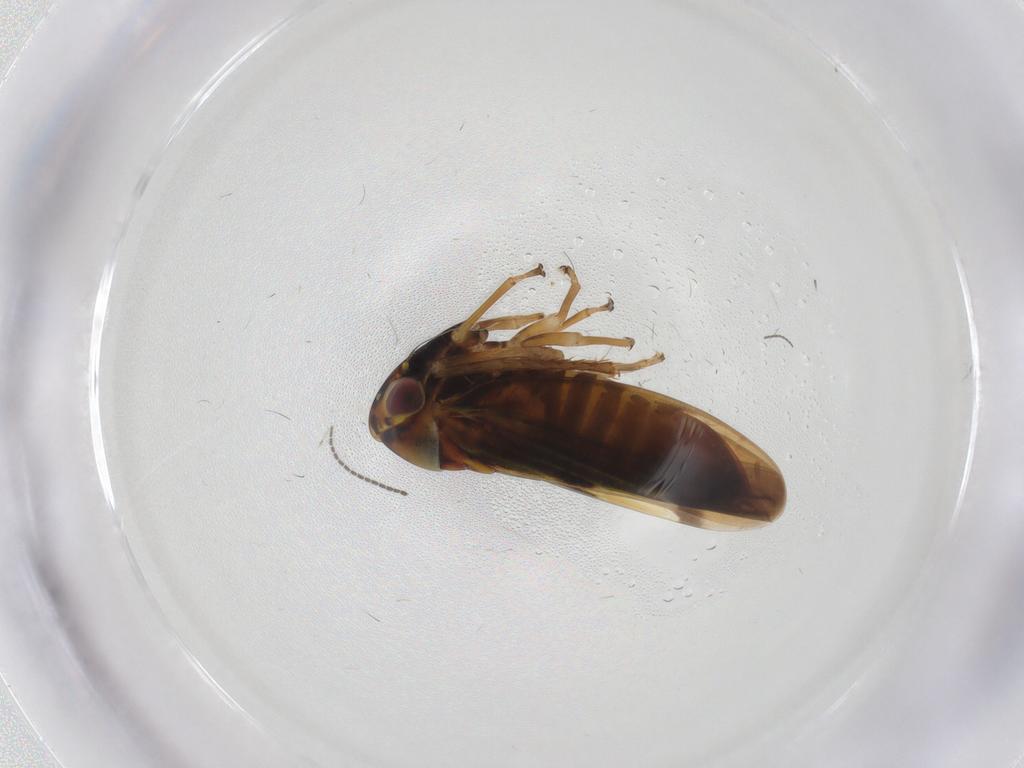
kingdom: Animalia
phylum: Arthropoda
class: Insecta
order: Hemiptera
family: Cicadellidae
